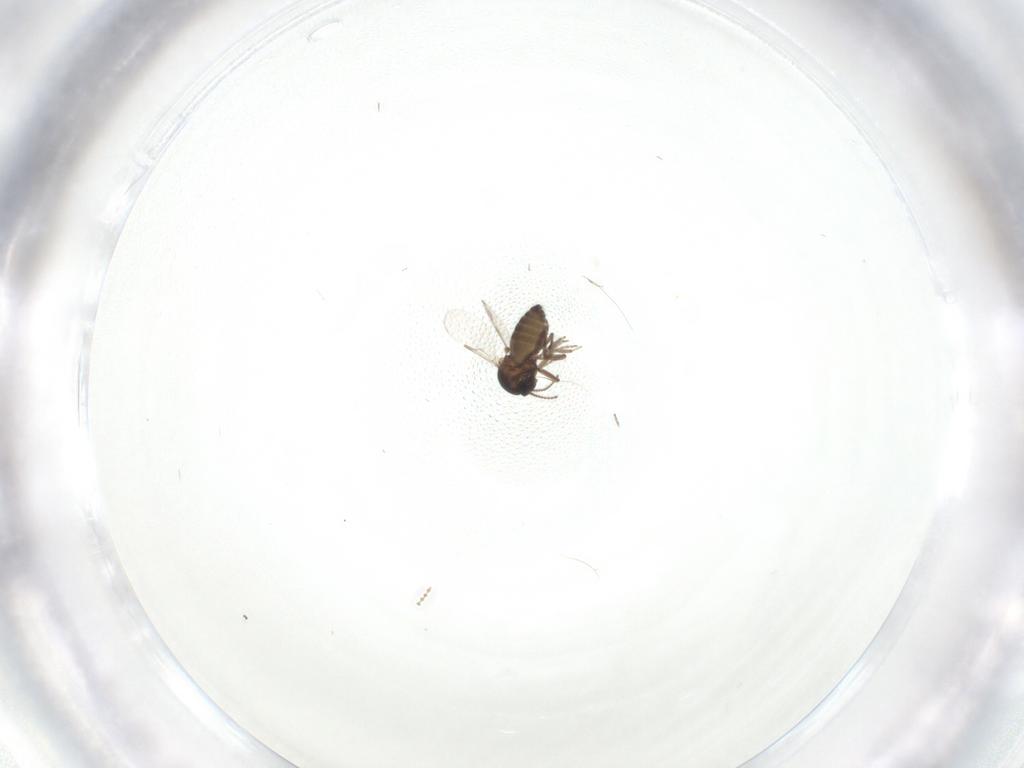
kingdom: Animalia
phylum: Arthropoda
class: Insecta
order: Diptera
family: Ceratopogonidae
